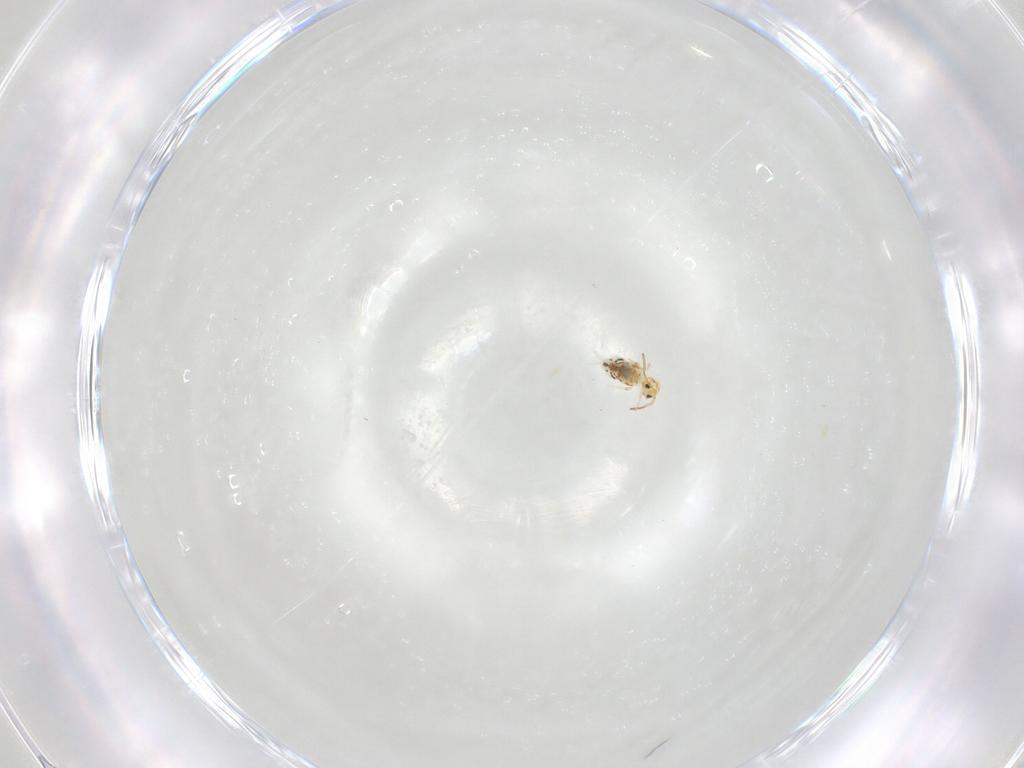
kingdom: Animalia
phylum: Arthropoda
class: Collembola
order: Symphypleona
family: Bourletiellidae
